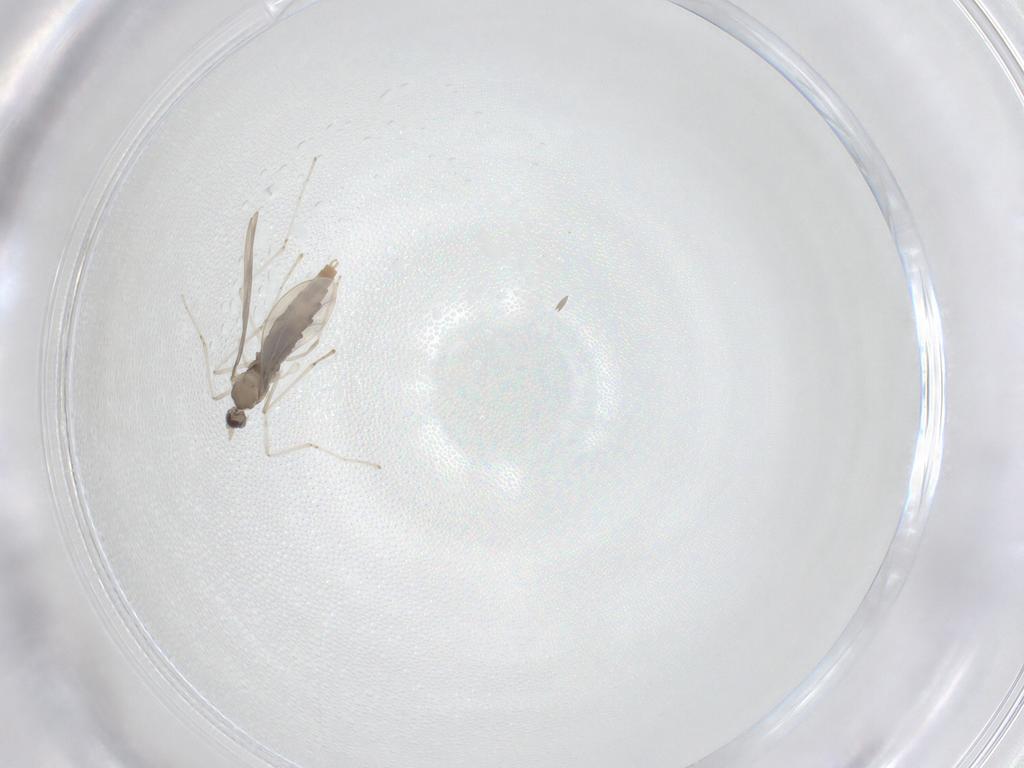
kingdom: Animalia
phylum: Arthropoda
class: Insecta
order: Diptera
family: Cecidomyiidae
